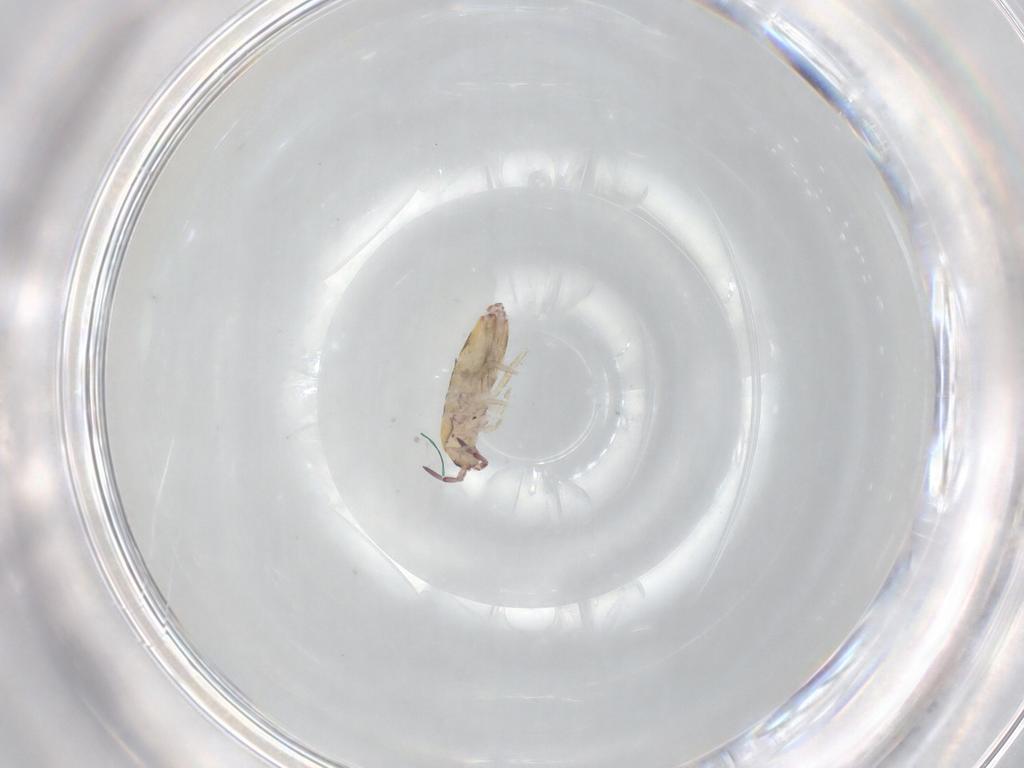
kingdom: Animalia
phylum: Arthropoda
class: Collembola
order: Entomobryomorpha
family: Entomobryidae
